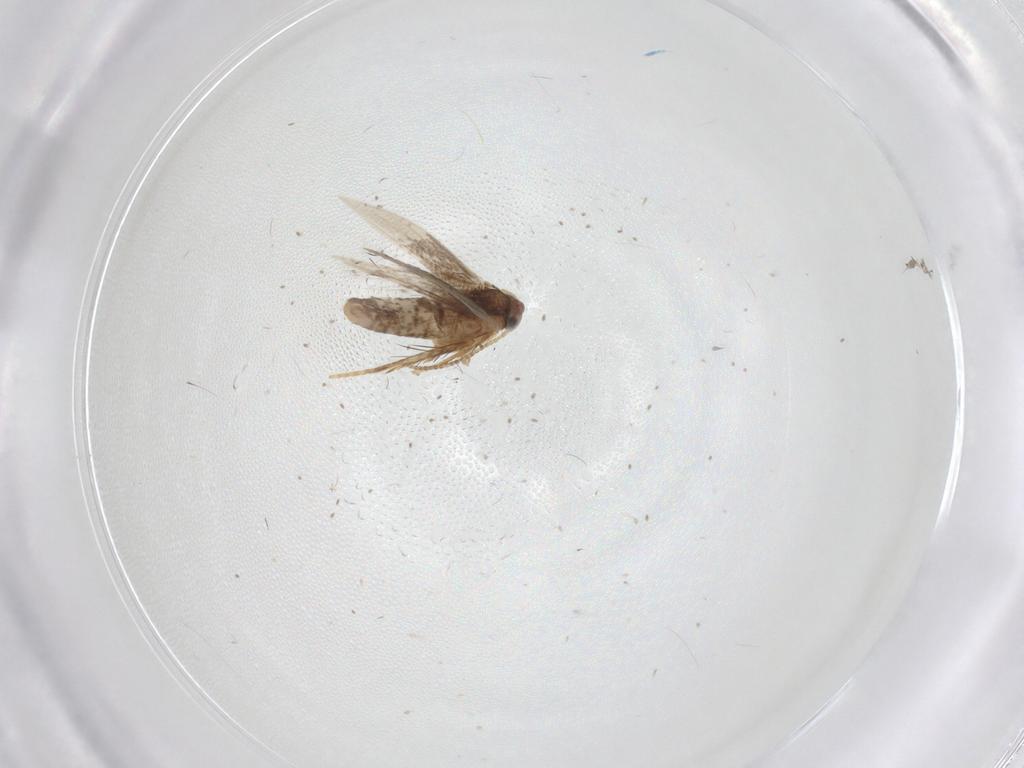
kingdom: Animalia
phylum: Arthropoda
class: Insecta
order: Lepidoptera
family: Nepticulidae
